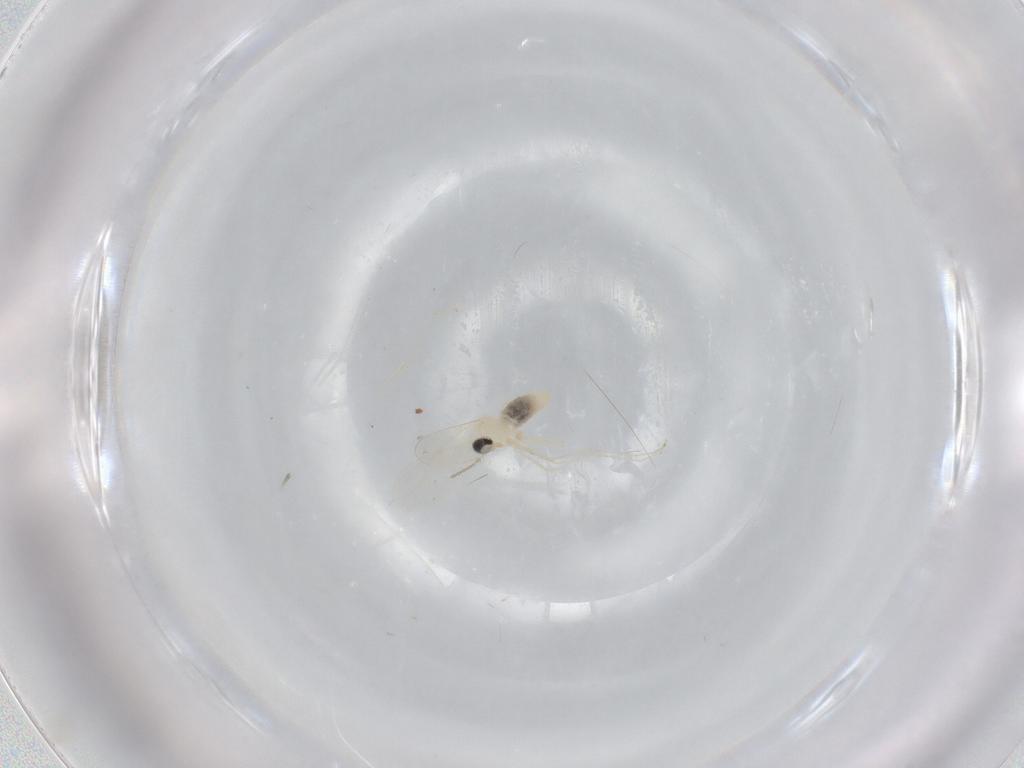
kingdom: Animalia
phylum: Arthropoda
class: Insecta
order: Diptera
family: Cecidomyiidae
